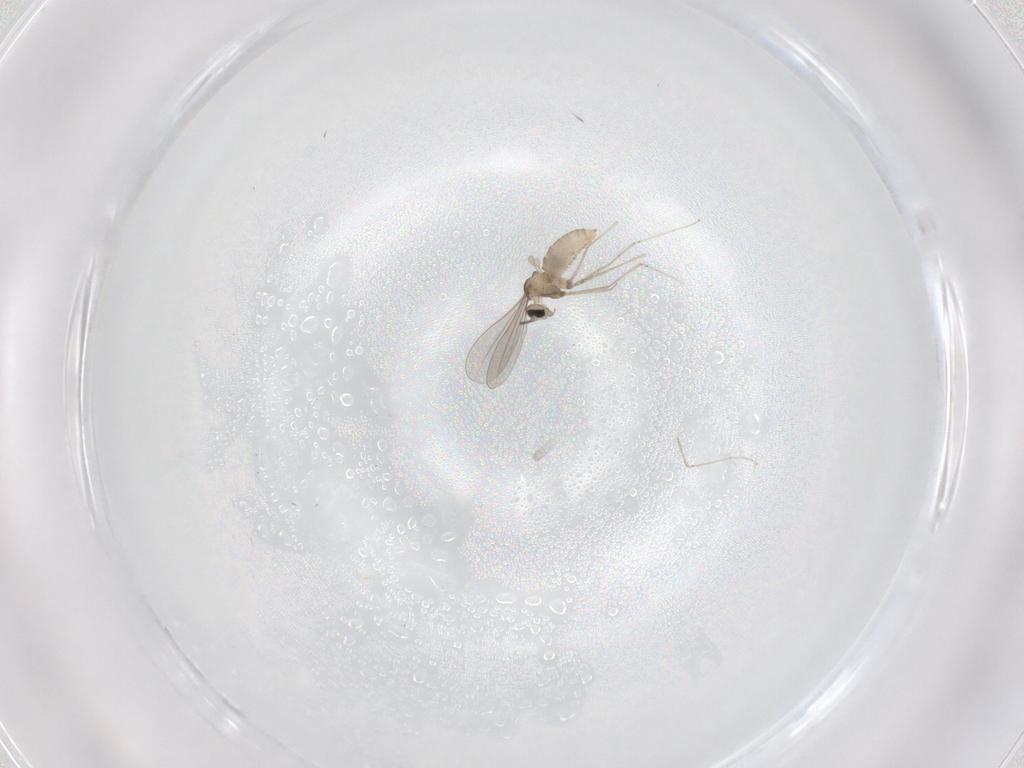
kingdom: Animalia
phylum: Arthropoda
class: Insecta
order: Diptera
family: Cecidomyiidae
